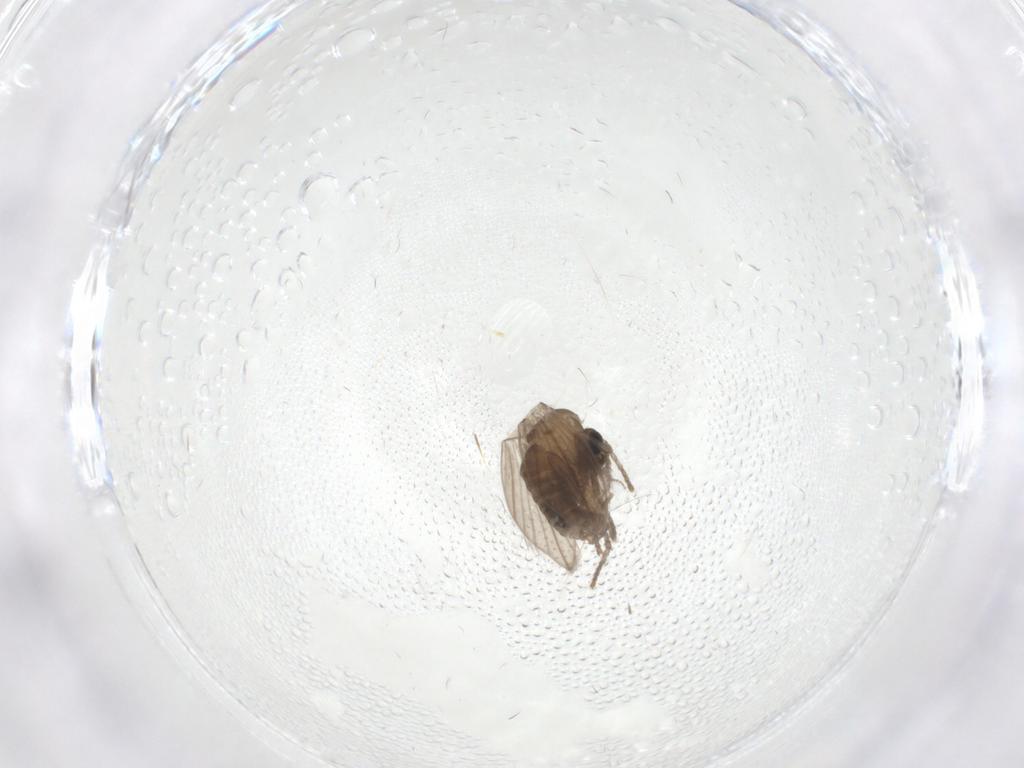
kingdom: Animalia
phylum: Arthropoda
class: Insecta
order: Diptera
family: Psychodidae
